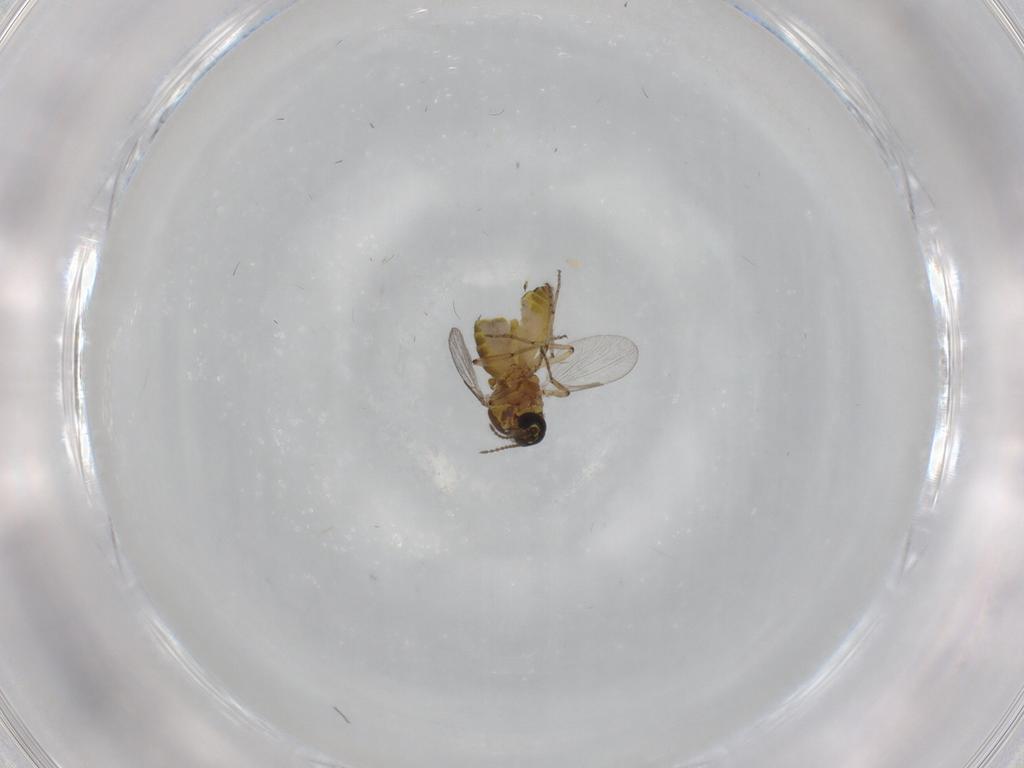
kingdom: Animalia
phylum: Arthropoda
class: Insecta
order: Diptera
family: Ceratopogonidae
